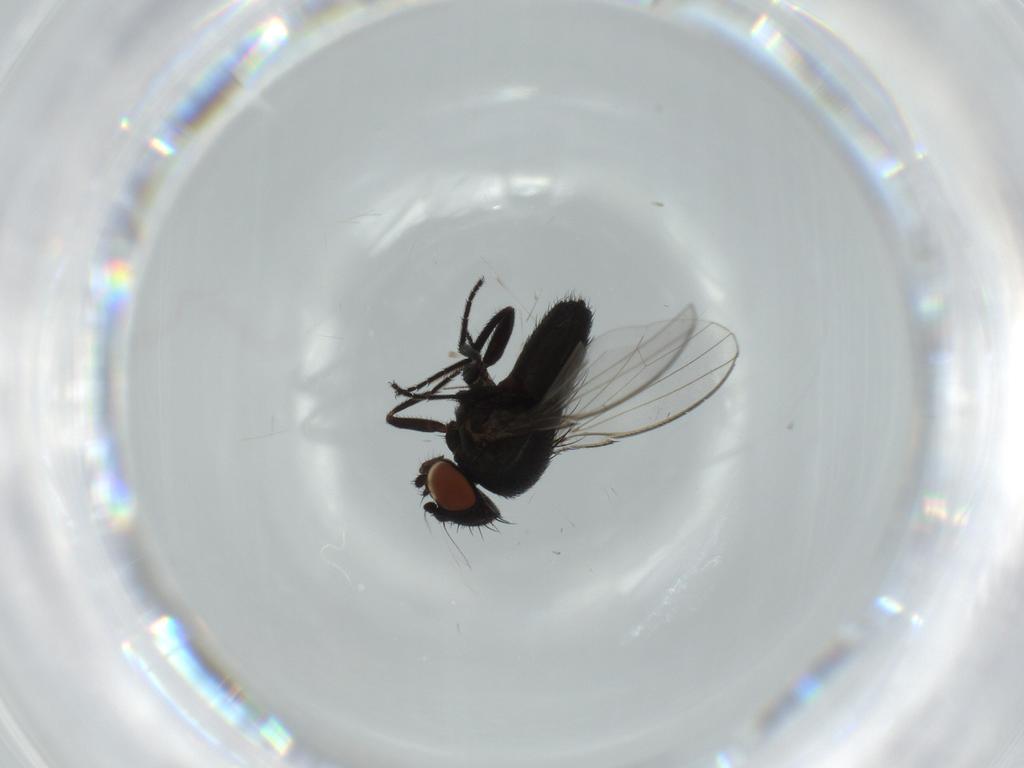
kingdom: Animalia
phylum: Arthropoda
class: Insecta
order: Diptera
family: Milichiidae
